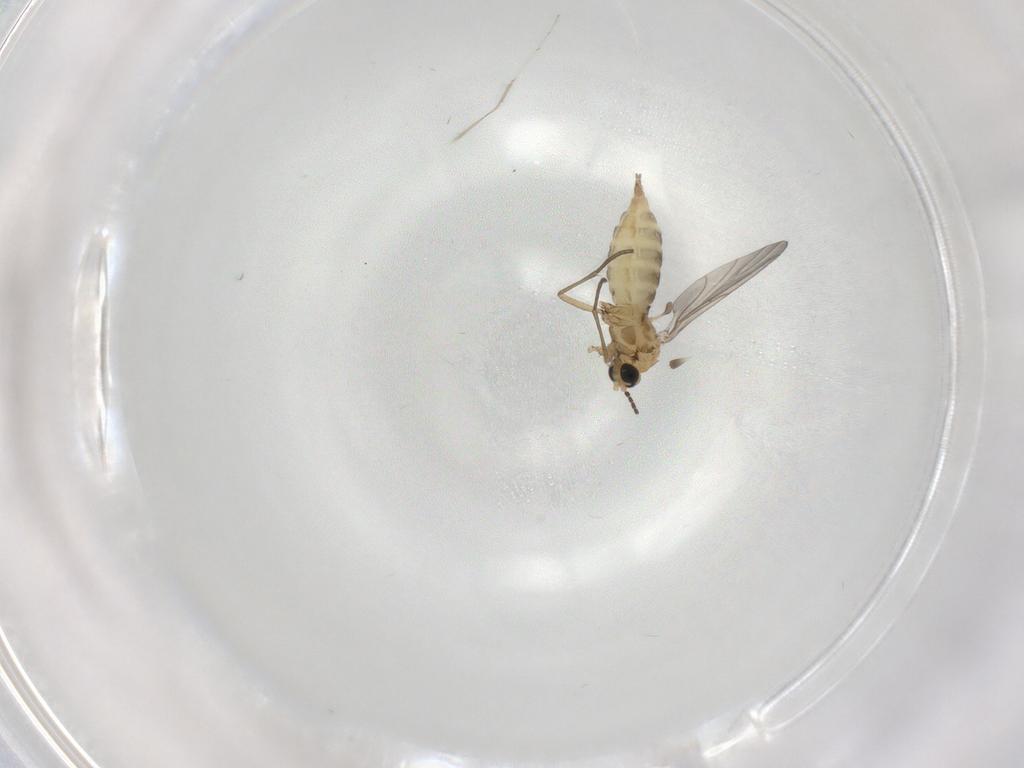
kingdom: Animalia
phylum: Arthropoda
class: Insecta
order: Diptera
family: Sciaridae
